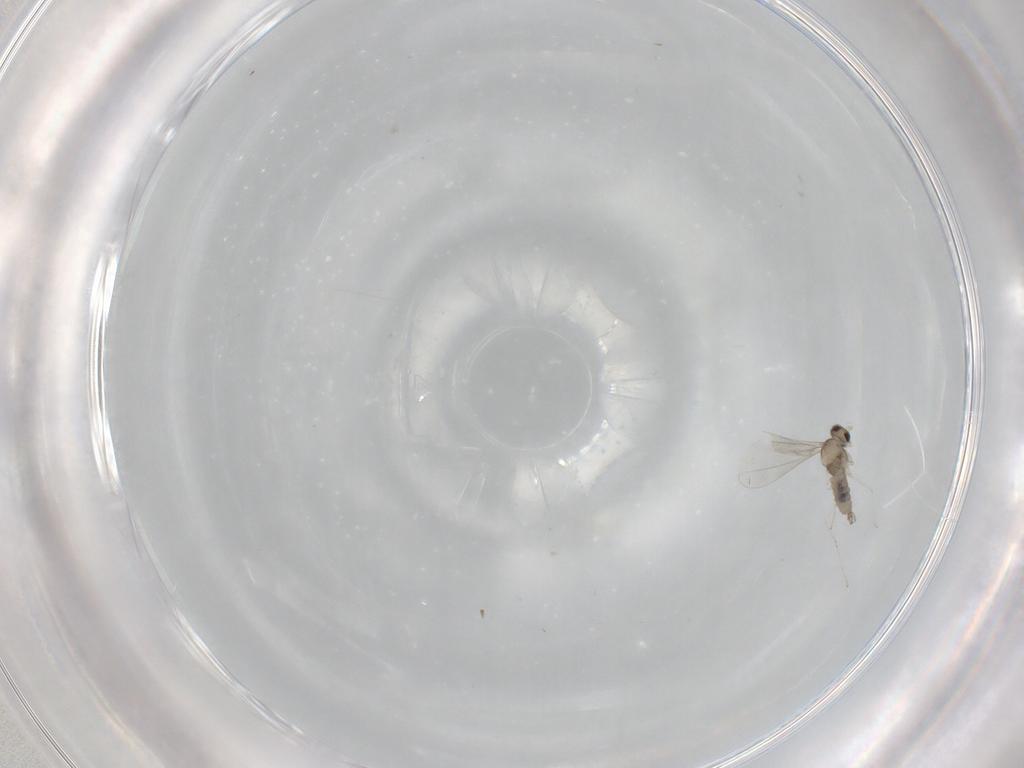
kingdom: Animalia
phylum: Arthropoda
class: Insecta
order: Diptera
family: Cecidomyiidae
